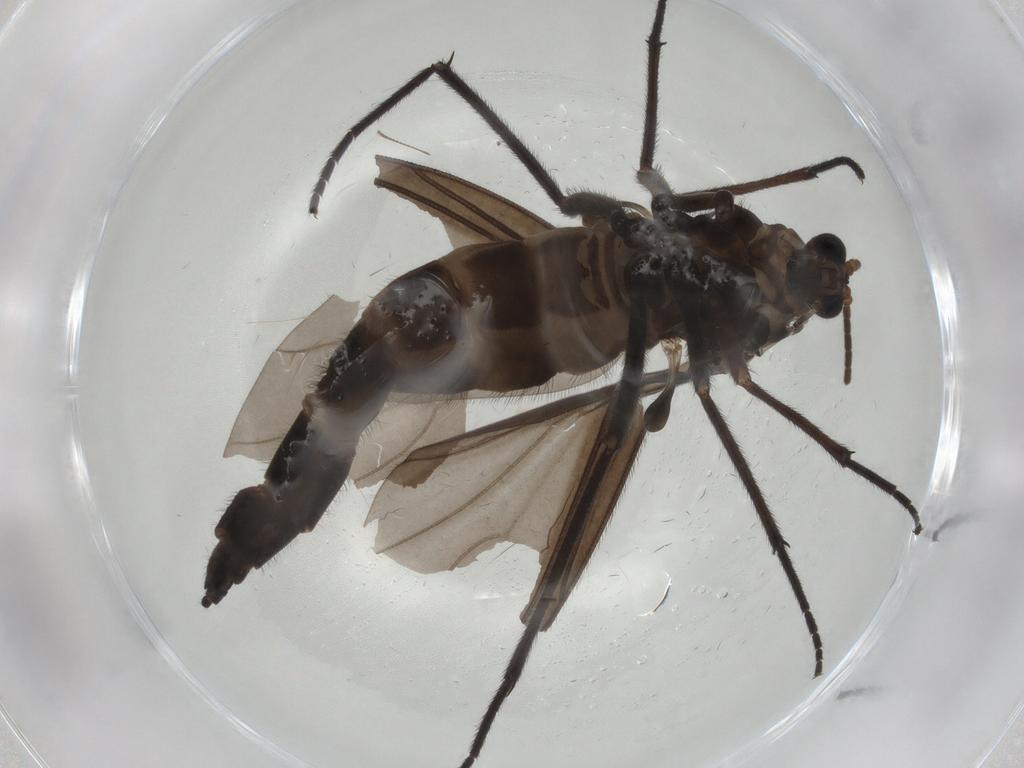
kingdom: Animalia
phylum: Arthropoda
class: Insecta
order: Diptera
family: Sciaridae
